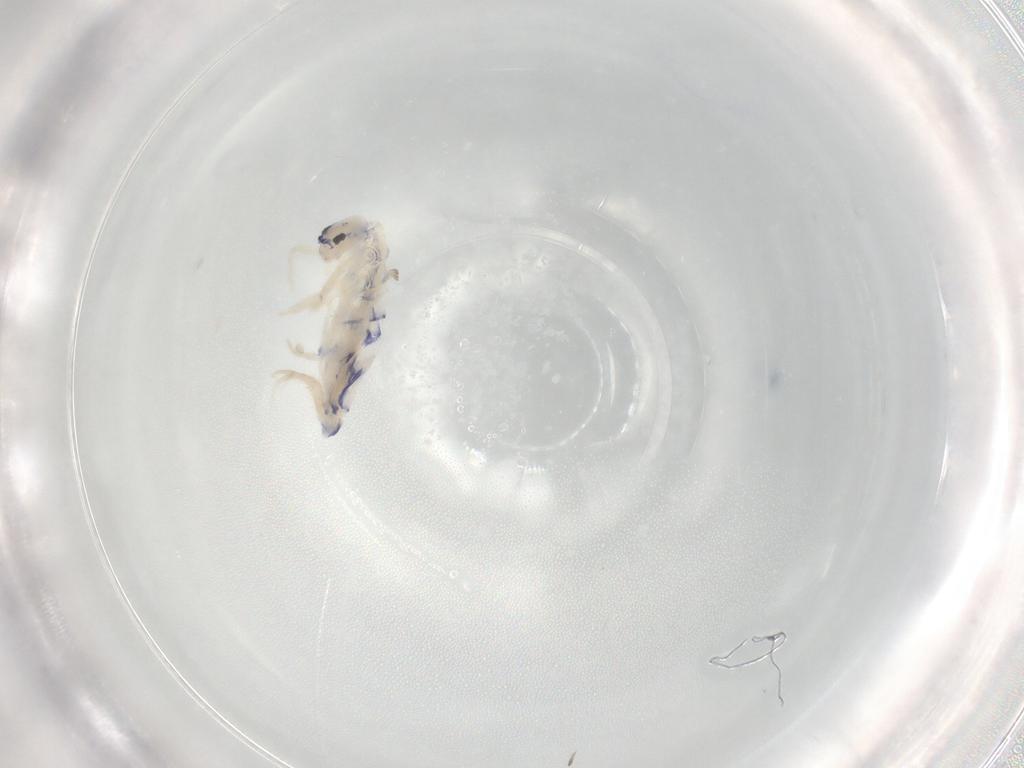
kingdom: Animalia
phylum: Arthropoda
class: Collembola
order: Entomobryomorpha
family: Entomobryidae
